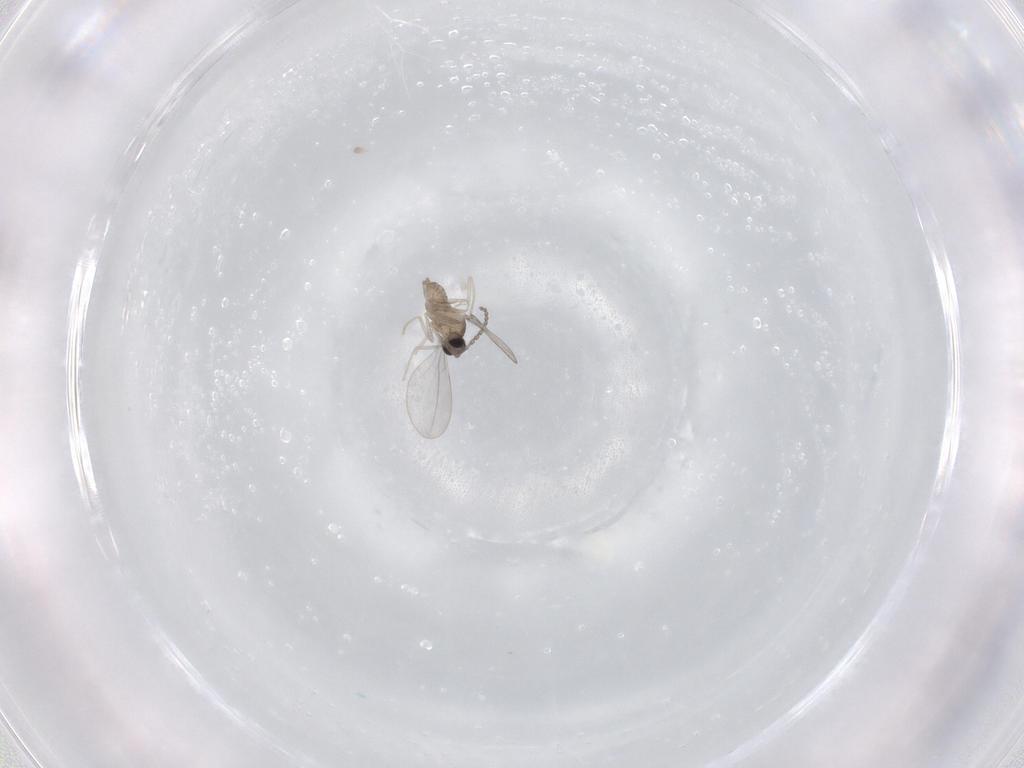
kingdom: Animalia
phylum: Arthropoda
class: Insecta
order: Diptera
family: Cecidomyiidae
